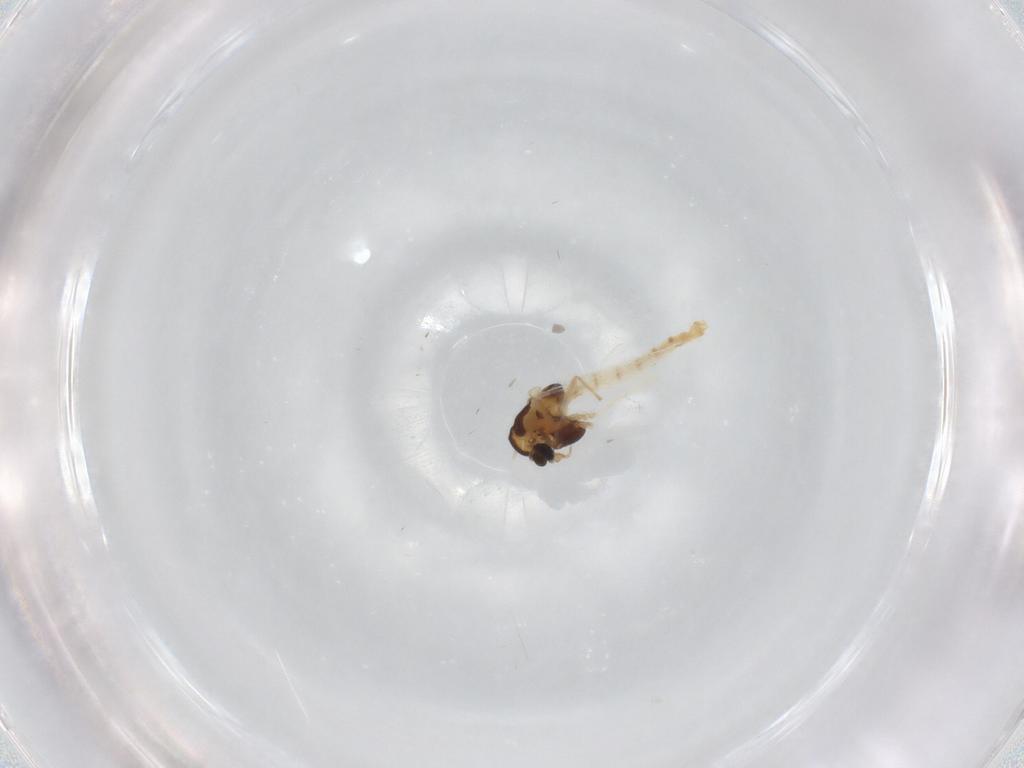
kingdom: Animalia
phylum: Arthropoda
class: Insecta
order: Diptera
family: Chironomidae
